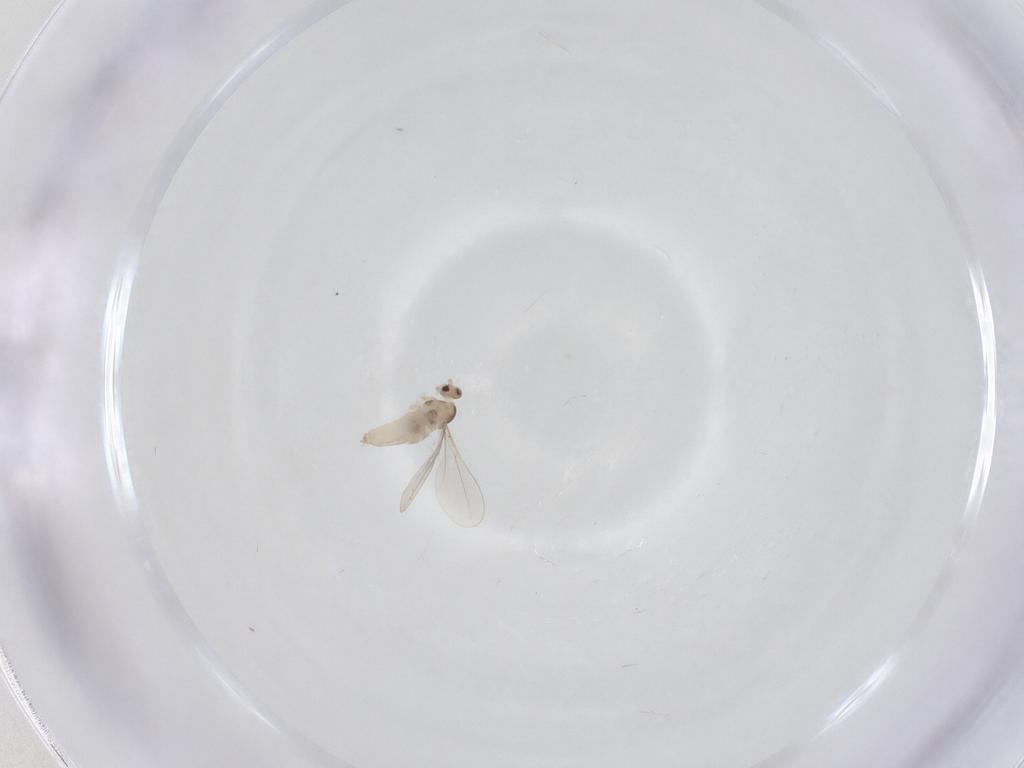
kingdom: Animalia
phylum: Arthropoda
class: Insecta
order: Diptera
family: Cecidomyiidae
